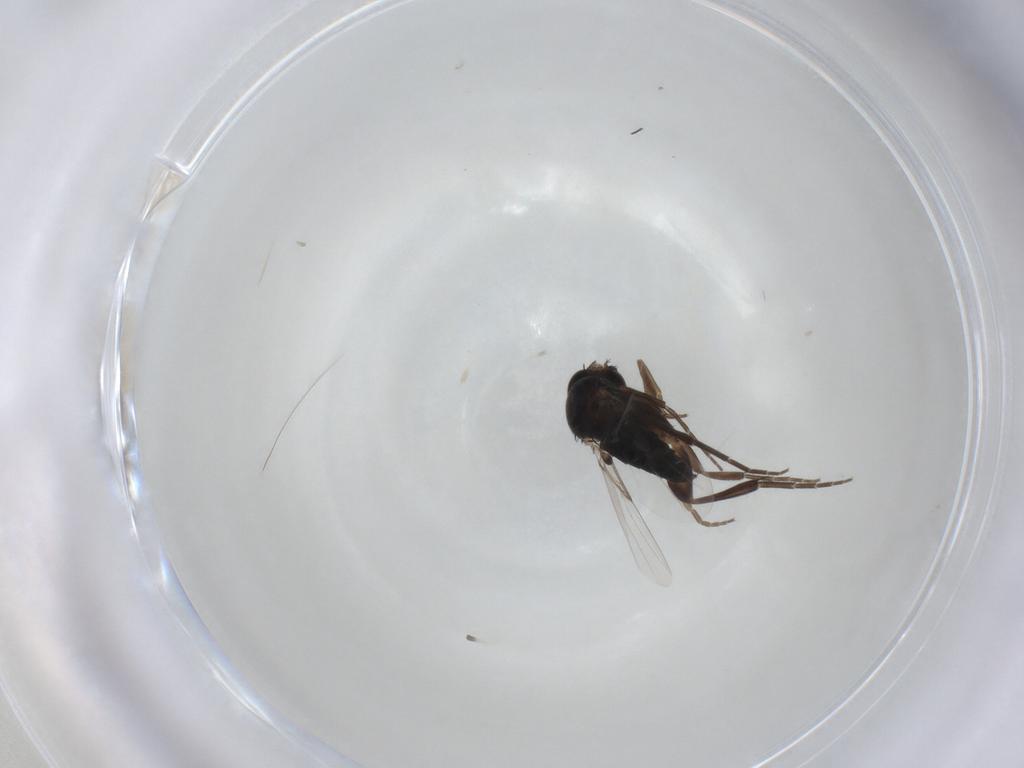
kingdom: Animalia
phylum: Arthropoda
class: Insecta
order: Diptera
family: Phoridae
